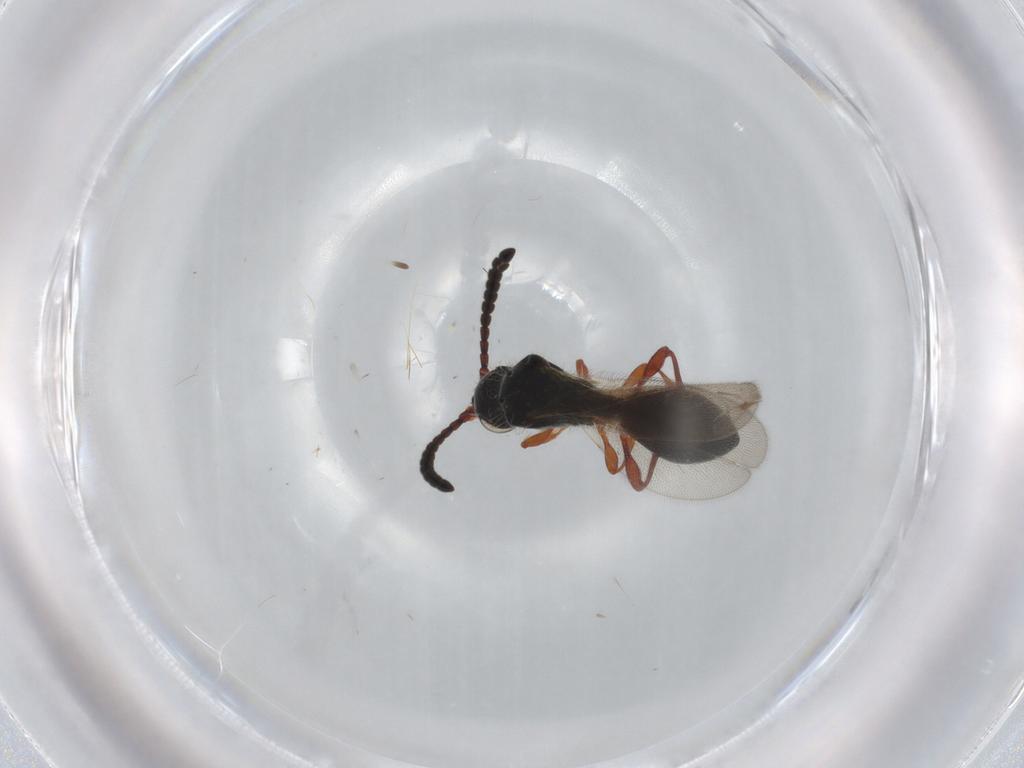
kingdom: Animalia
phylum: Arthropoda
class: Insecta
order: Hymenoptera
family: Diapriidae
